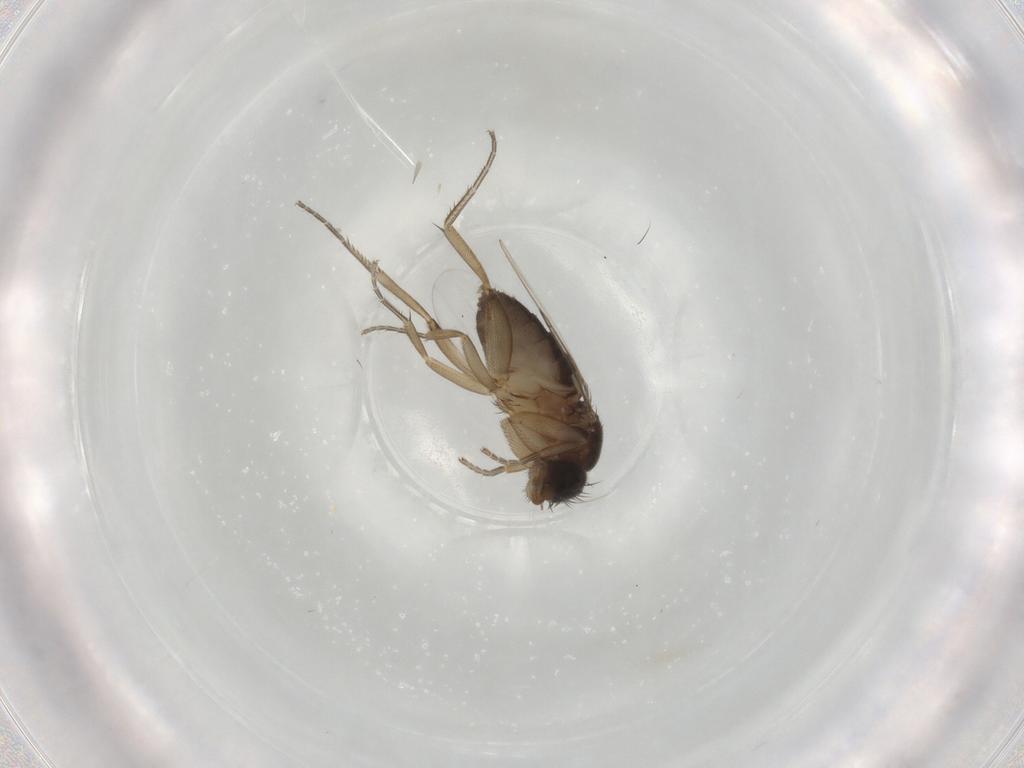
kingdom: Animalia
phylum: Arthropoda
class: Insecta
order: Diptera
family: Phoridae
